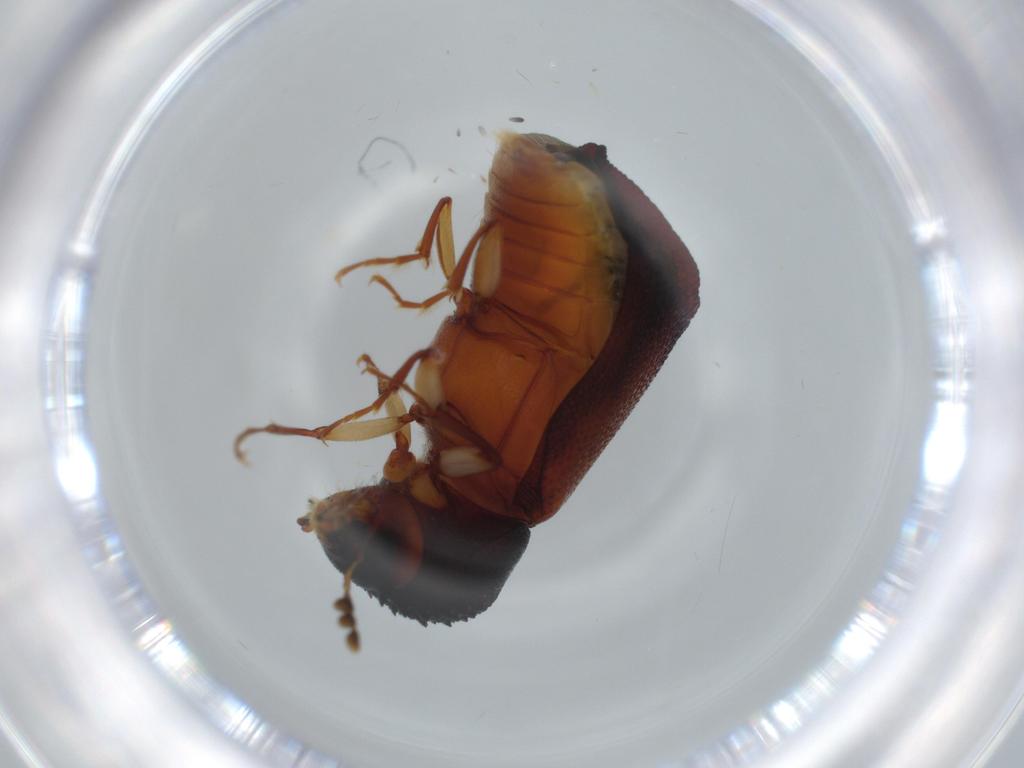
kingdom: Animalia
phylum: Arthropoda
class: Insecta
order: Coleoptera
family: Bostrichidae
